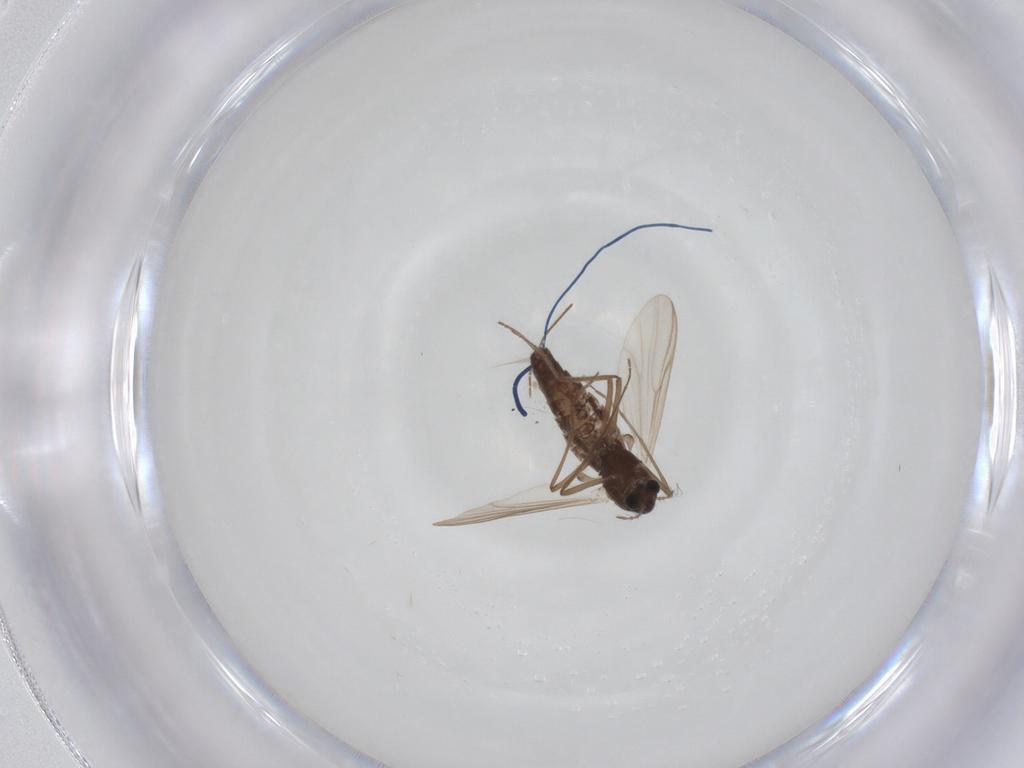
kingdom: Animalia
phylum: Arthropoda
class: Insecta
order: Diptera
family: Chironomidae
